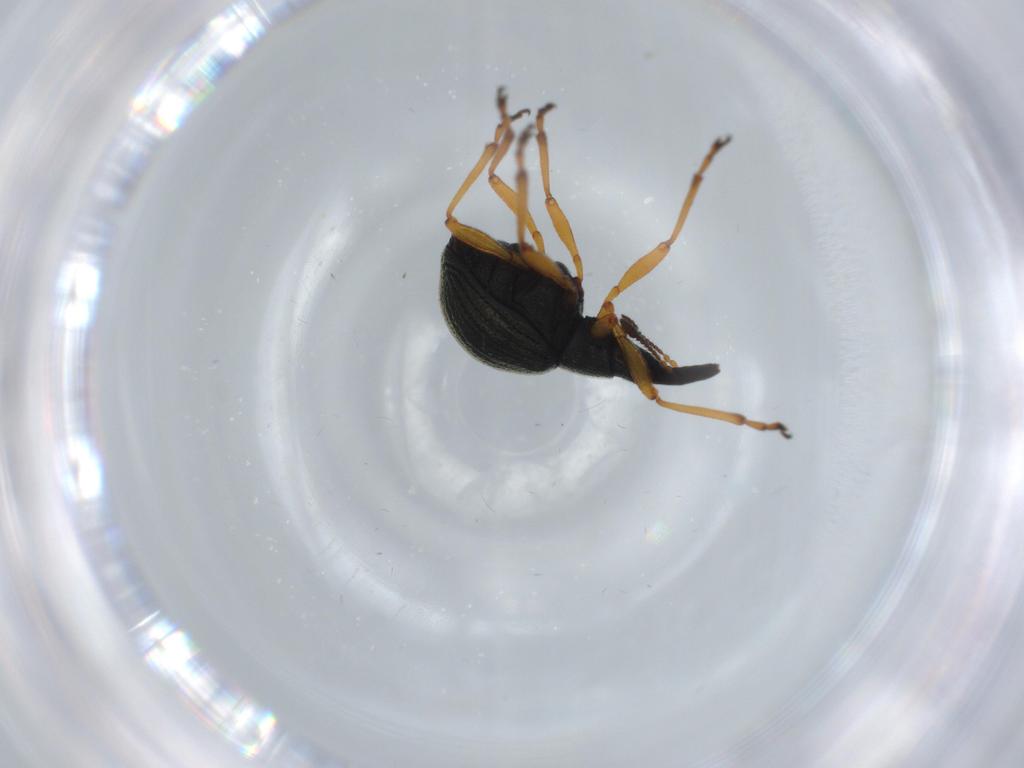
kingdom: Animalia
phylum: Arthropoda
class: Insecta
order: Coleoptera
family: Brentidae
